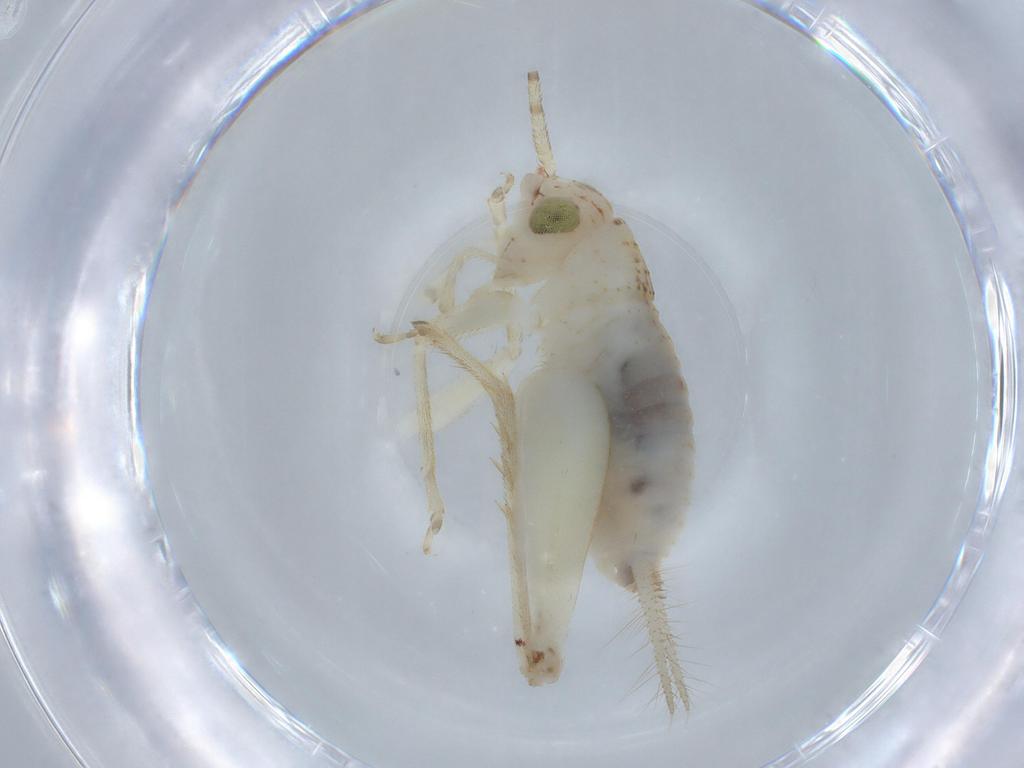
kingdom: Animalia
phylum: Arthropoda
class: Insecta
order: Orthoptera
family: Trigonidiidae
